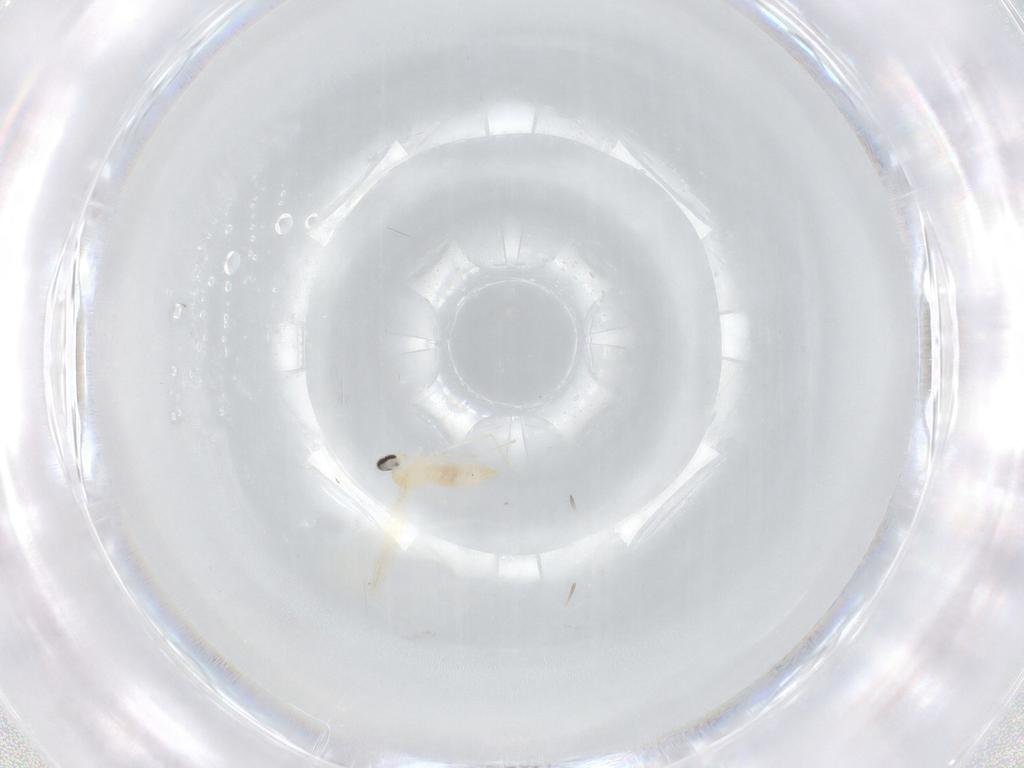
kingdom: Animalia
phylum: Arthropoda
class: Insecta
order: Diptera
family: Cecidomyiidae
